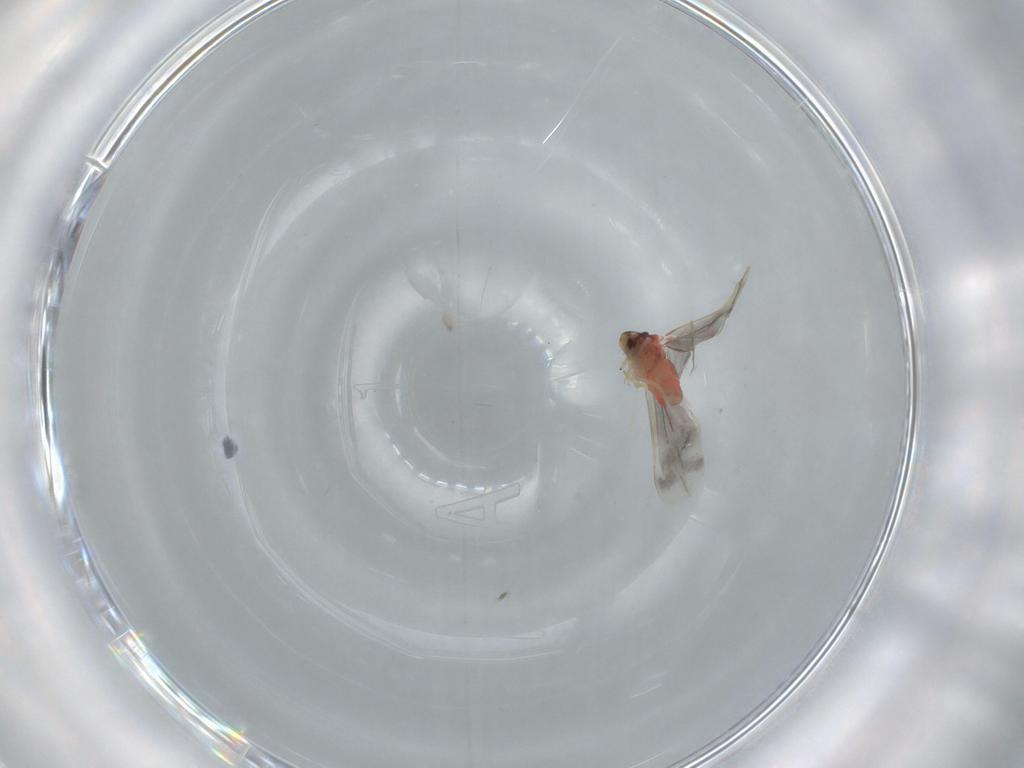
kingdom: Animalia
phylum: Arthropoda
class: Insecta
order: Hemiptera
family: Aleyrodidae
